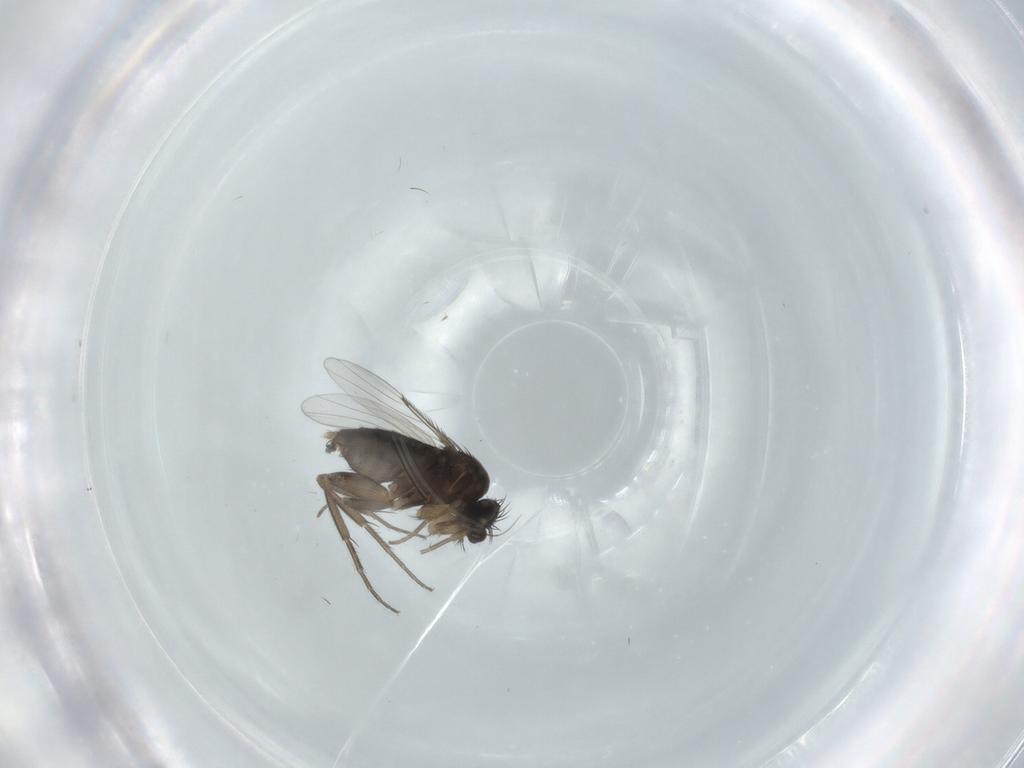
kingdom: Animalia
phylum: Arthropoda
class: Insecta
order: Diptera
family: Phoridae
